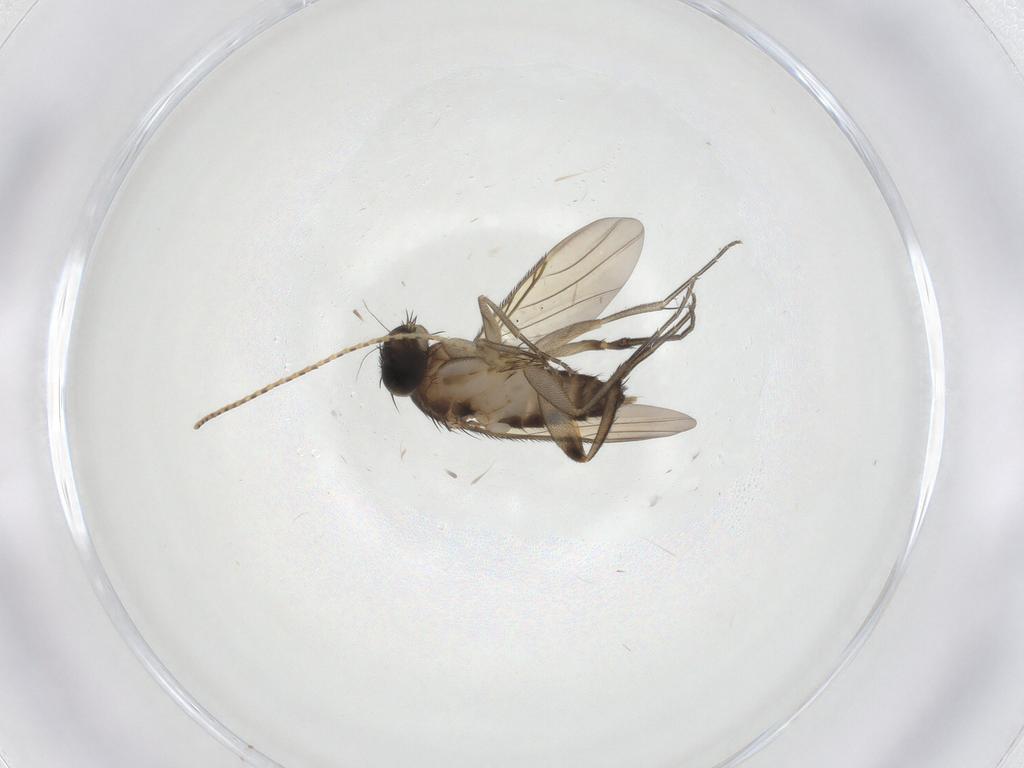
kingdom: Animalia
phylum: Arthropoda
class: Insecta
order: Diptera
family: Phoridae
